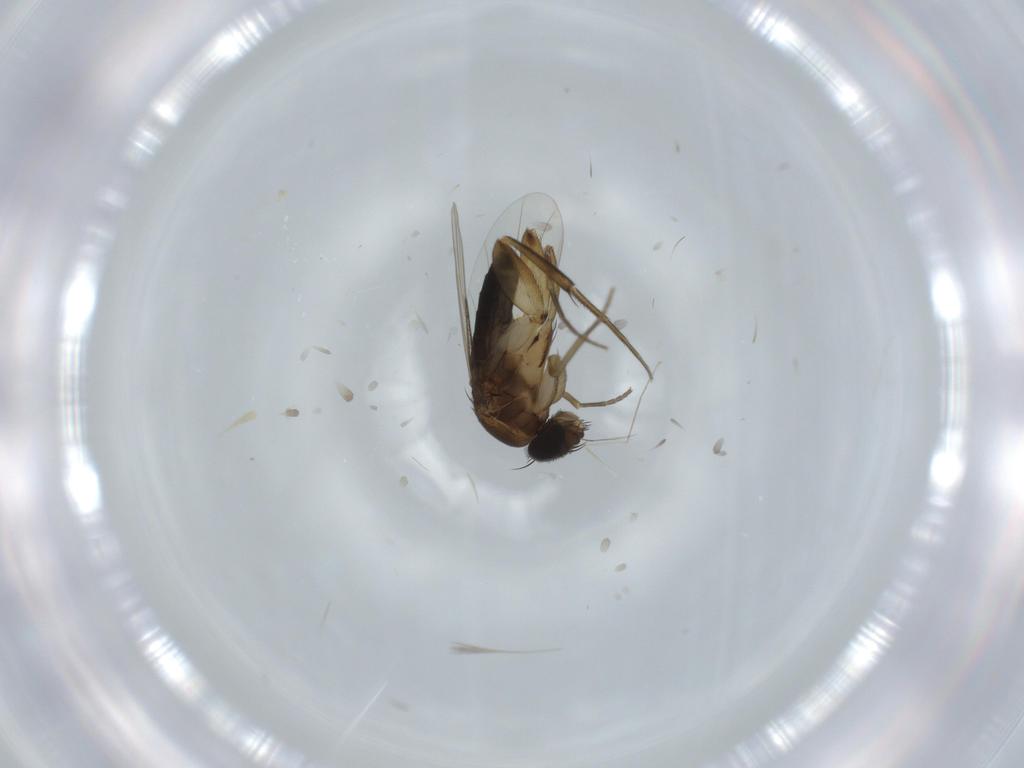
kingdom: Animalia
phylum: Arthropoda
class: Insecta
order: Diptera
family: Phoridae
